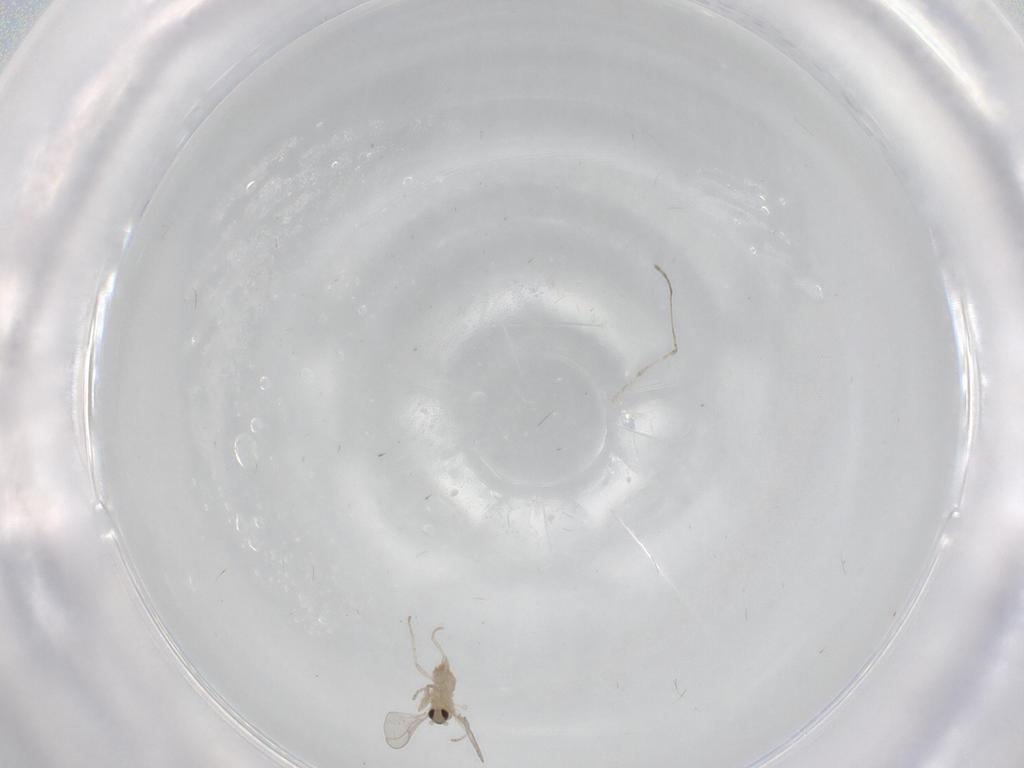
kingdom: Animalia
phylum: Arthropoda
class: Insecta
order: Diptera
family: Cecidomyiidae
